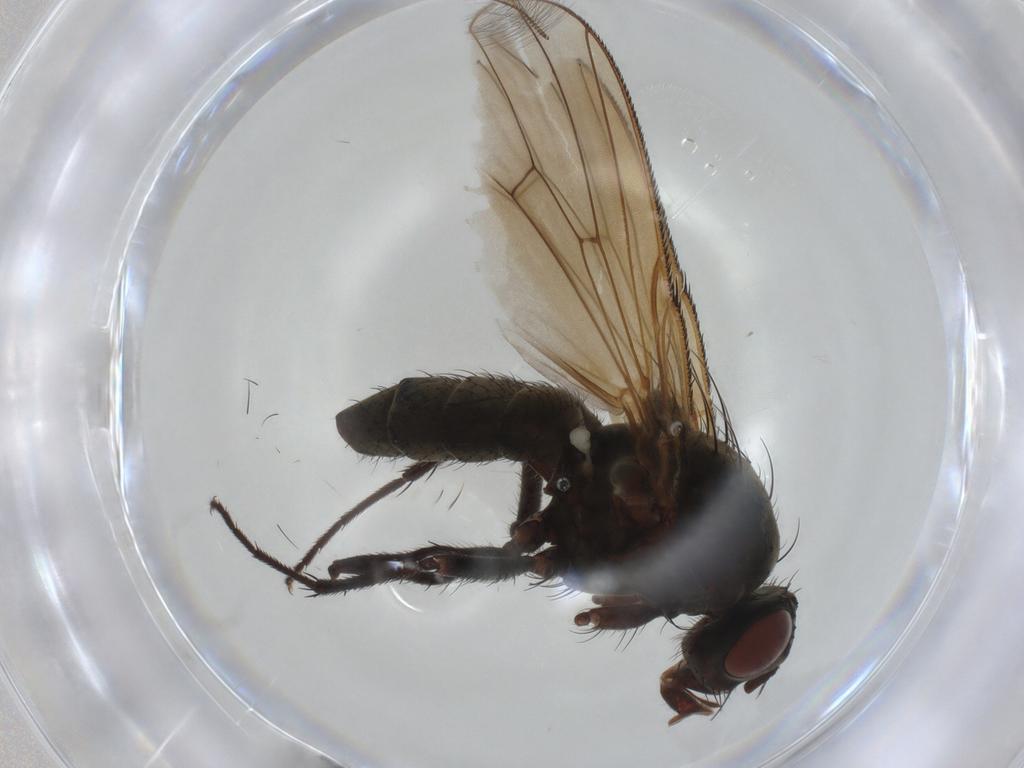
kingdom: Animalia
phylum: Arthropoda
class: Insecta
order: Diptera
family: Anthomyiidae
